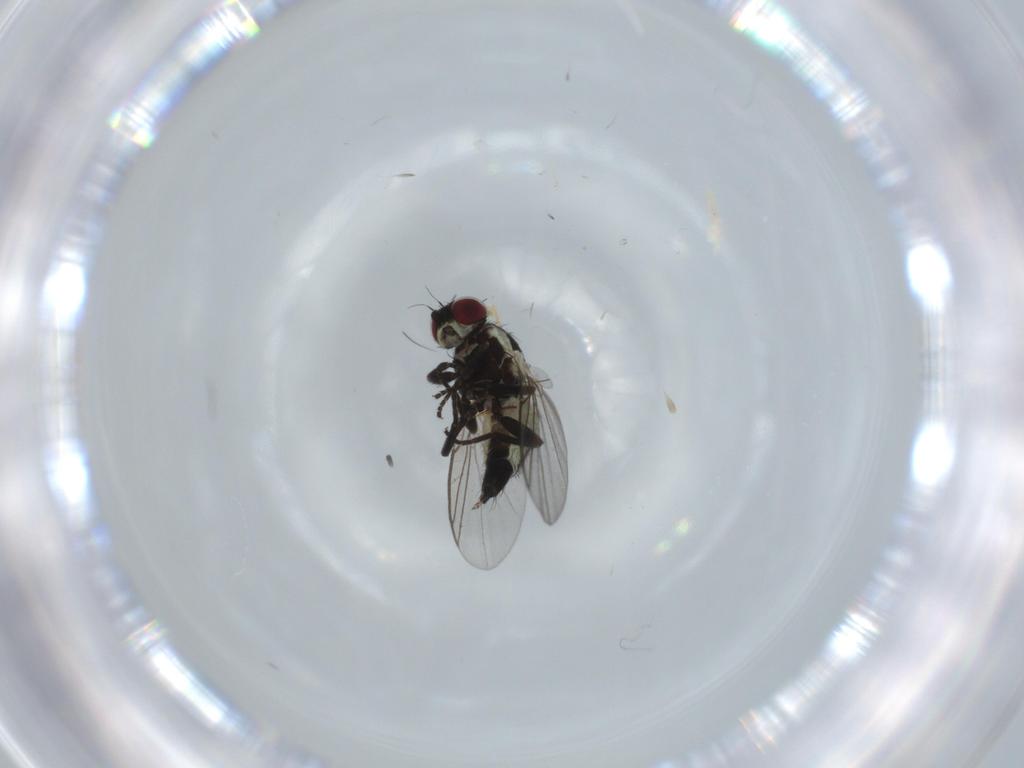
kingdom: Animalia
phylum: Arthropoda
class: Insecta
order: Diptera
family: Agromyzidae
